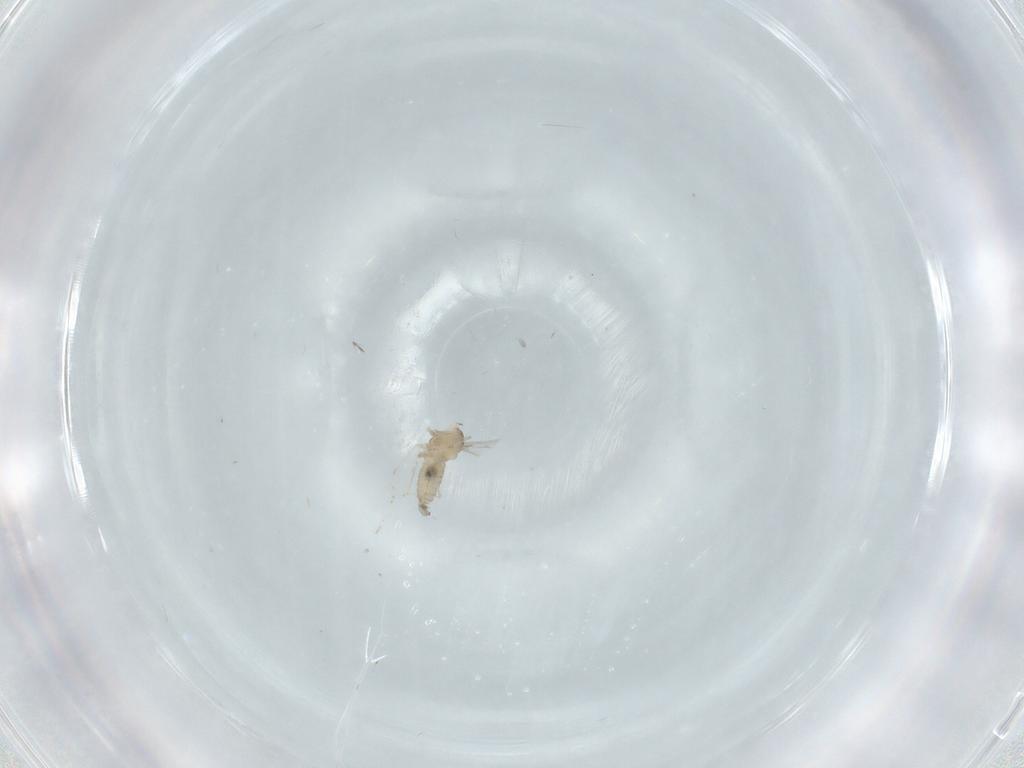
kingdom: Animalia
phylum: Arthropoda
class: Insecta
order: Diptera
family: Cecidomyiidae
